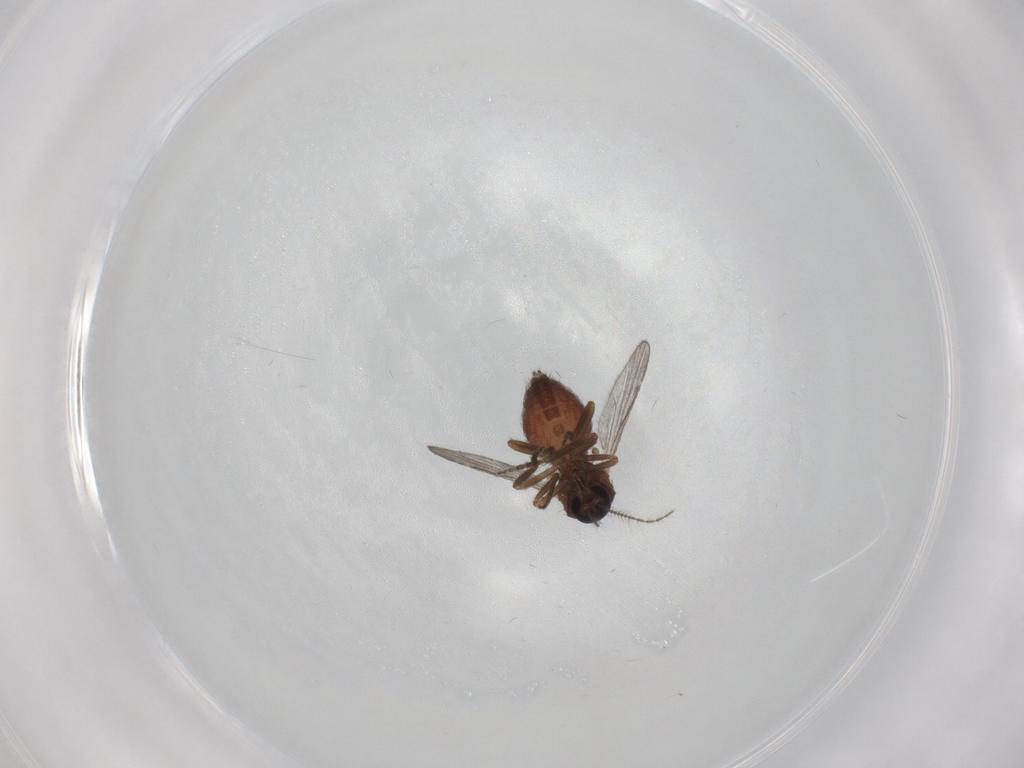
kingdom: Animalia
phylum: Arthropoda
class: Insecta
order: Diptera
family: Ceratopogonidae
